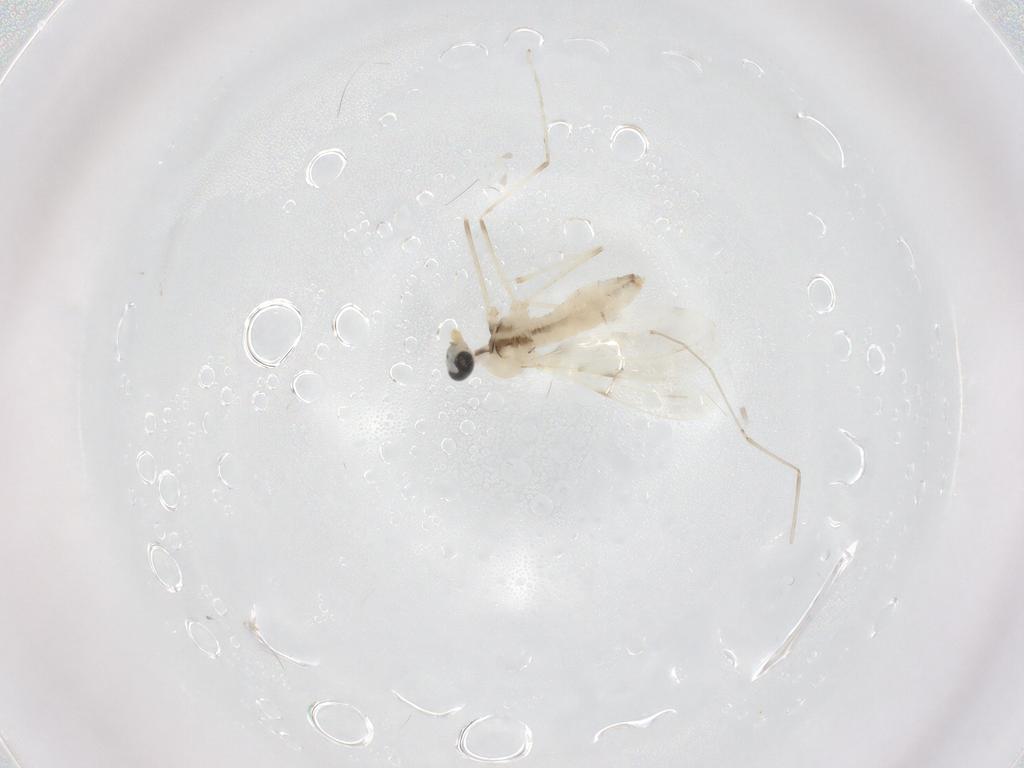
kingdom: Animalia
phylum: Arthropoda
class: Insecta
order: Diptera
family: Cecidomyiidae
